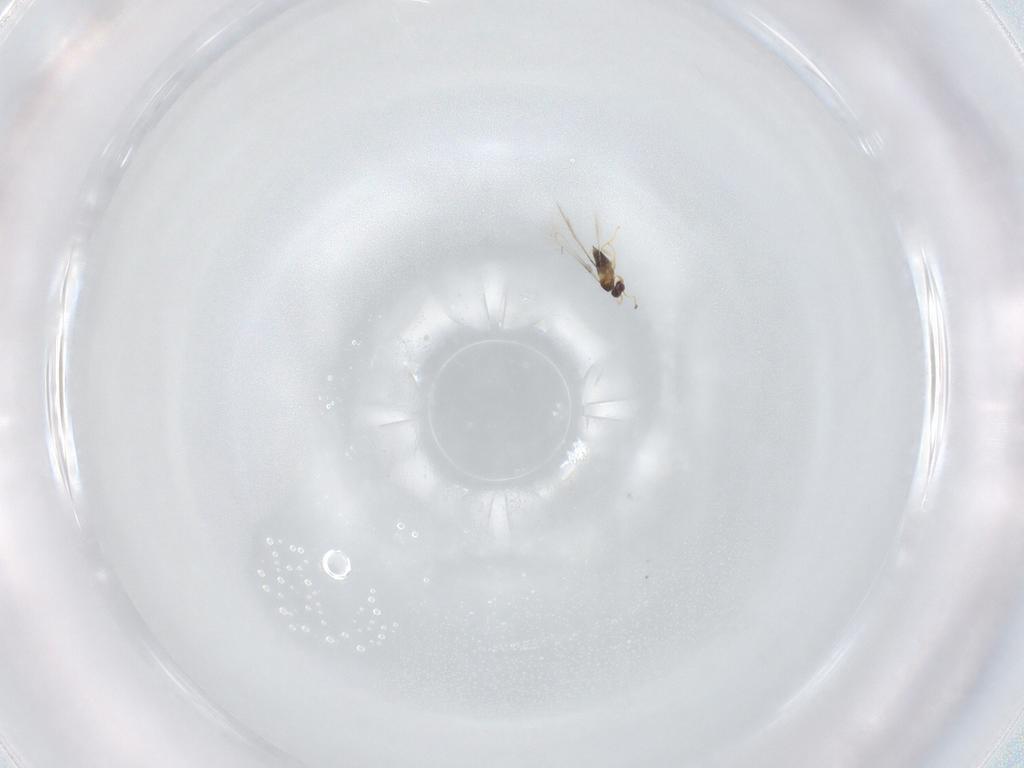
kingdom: Animalia
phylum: Arthropoda
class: Insecta
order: Hymenoptera
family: Mymaridae
